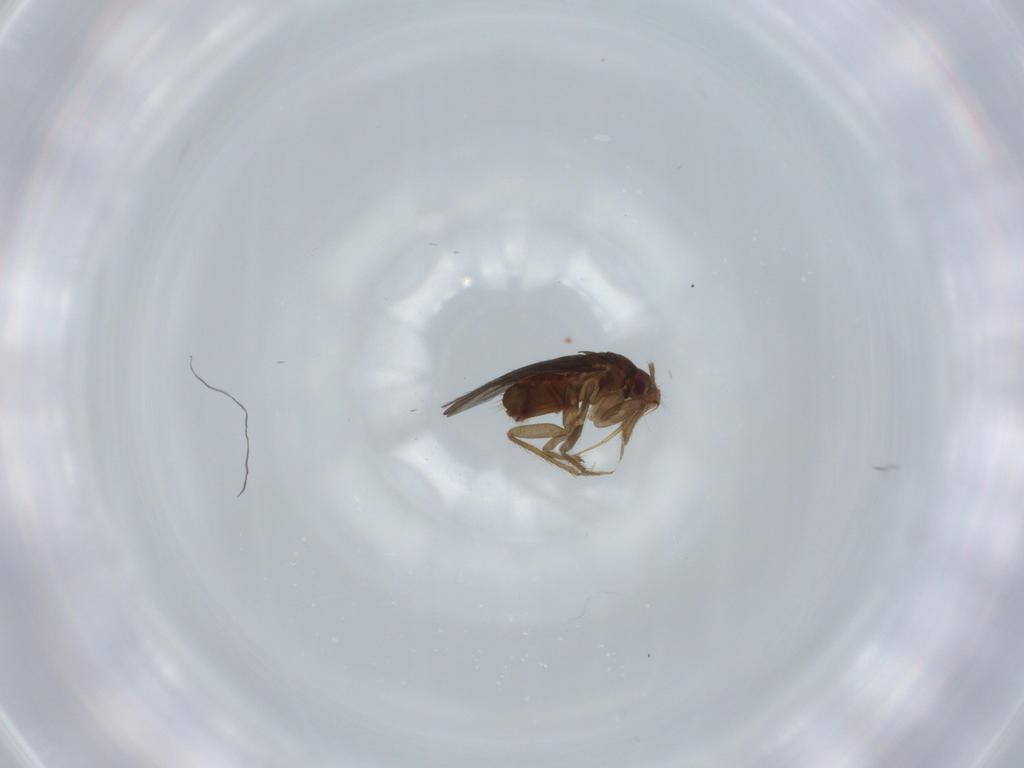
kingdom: Animalia
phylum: Arthropoda
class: Insecta
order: Hemiptera
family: Ceratocombidae
